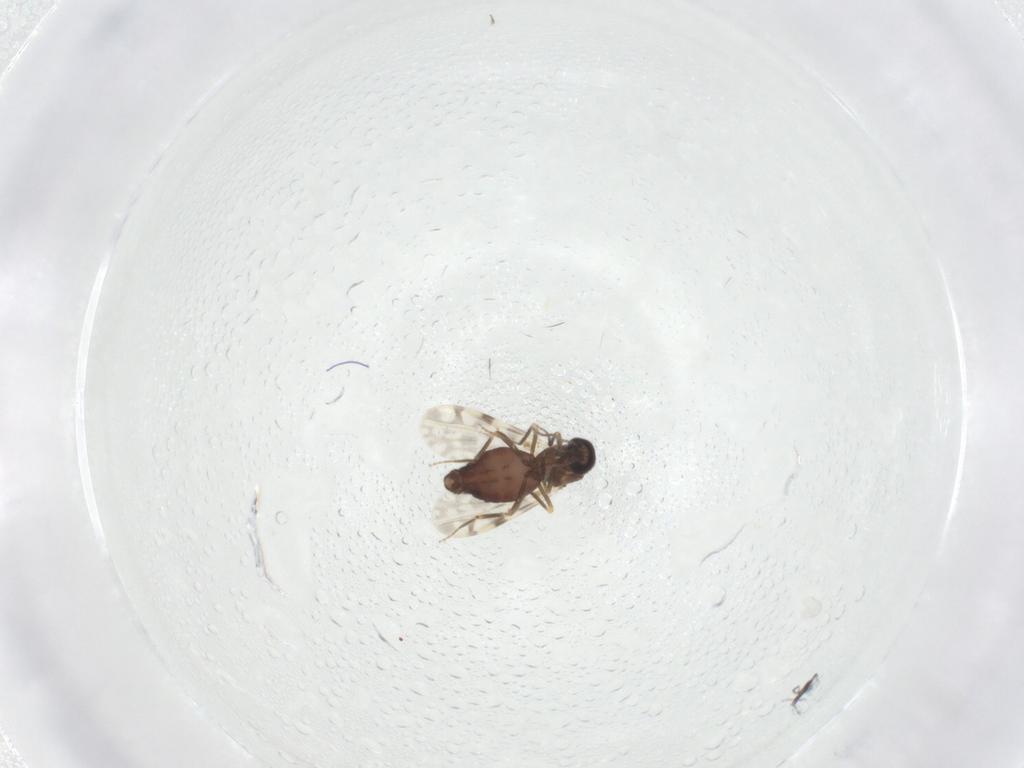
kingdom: Animalia
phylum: Arthropoda
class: Insecta
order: Diptera
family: Ceratopogonidae
